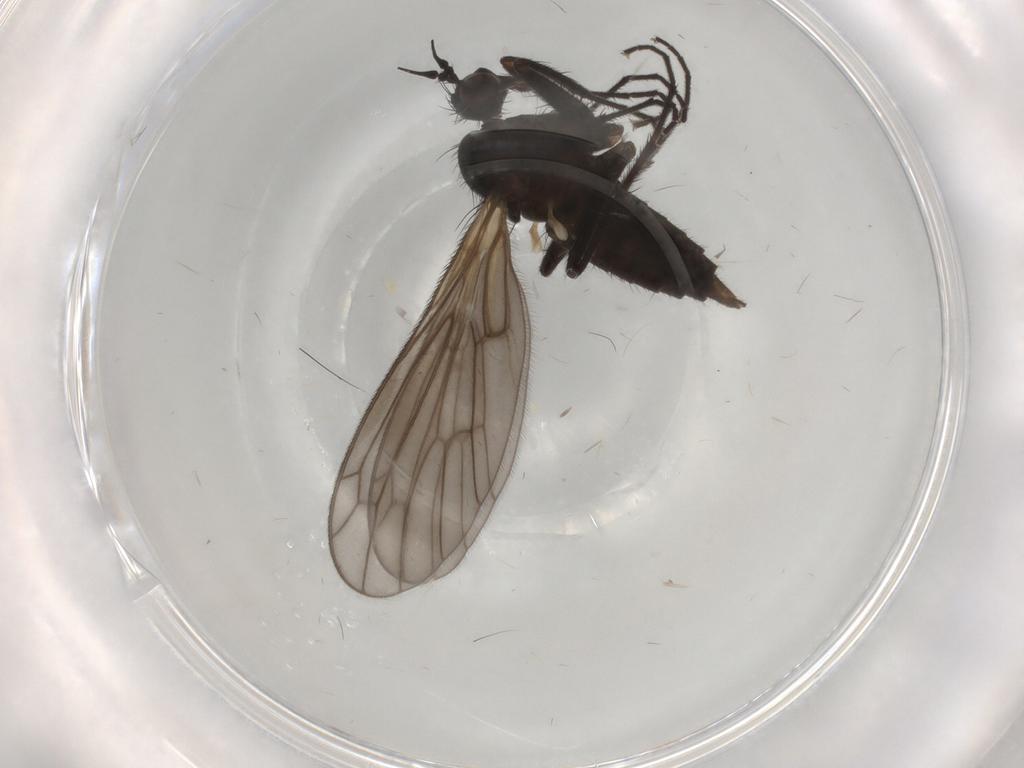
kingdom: Animalia
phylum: Arthropoda
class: Insecta
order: Diptera
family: Empididae
